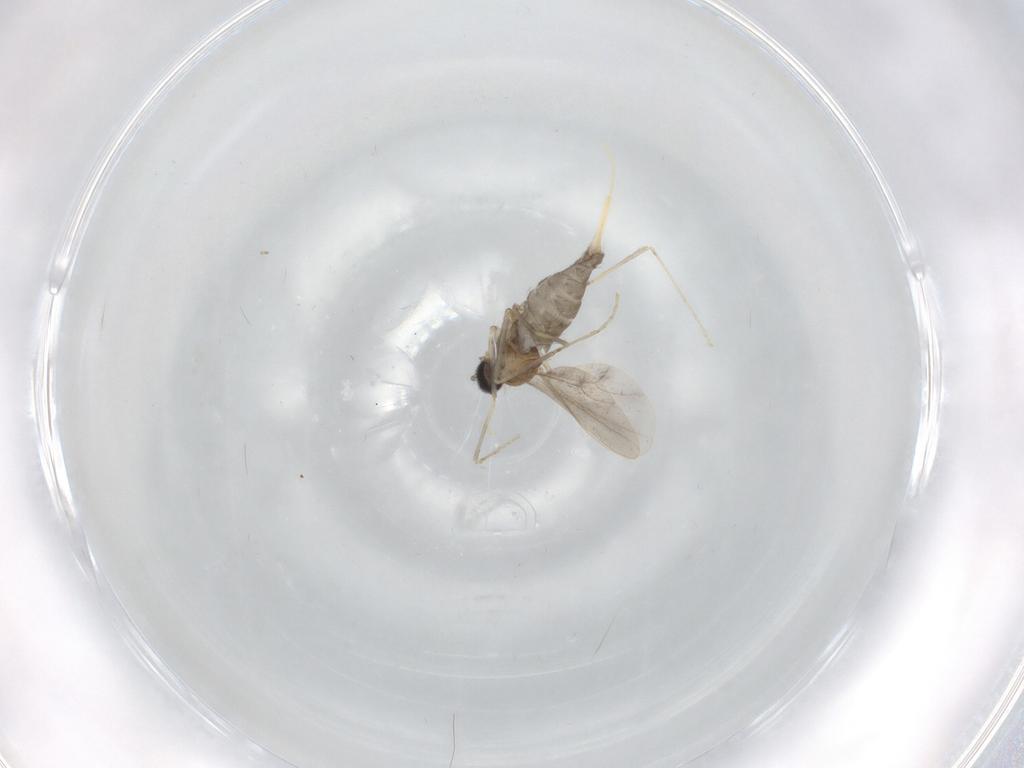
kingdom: Animalia
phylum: Arthropoda
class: Insecta
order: Diptera
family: Cecidomyiidae
